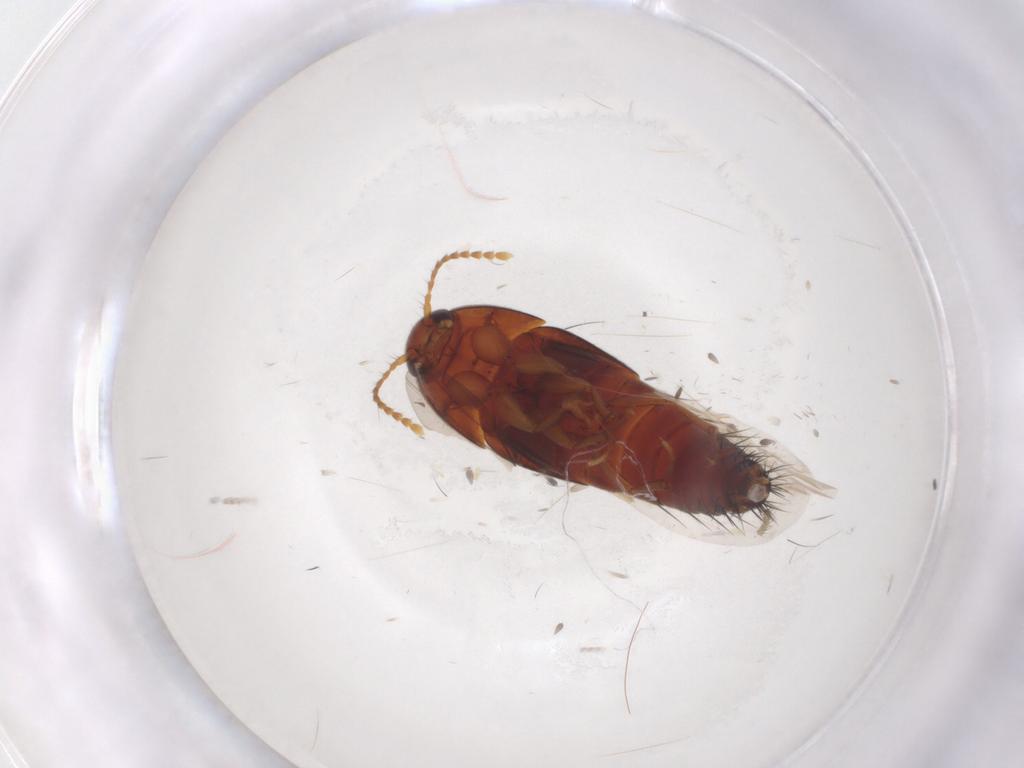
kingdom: Animalia
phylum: Arthropoda
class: Insecta
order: Coleoptera
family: Staphylinidae
